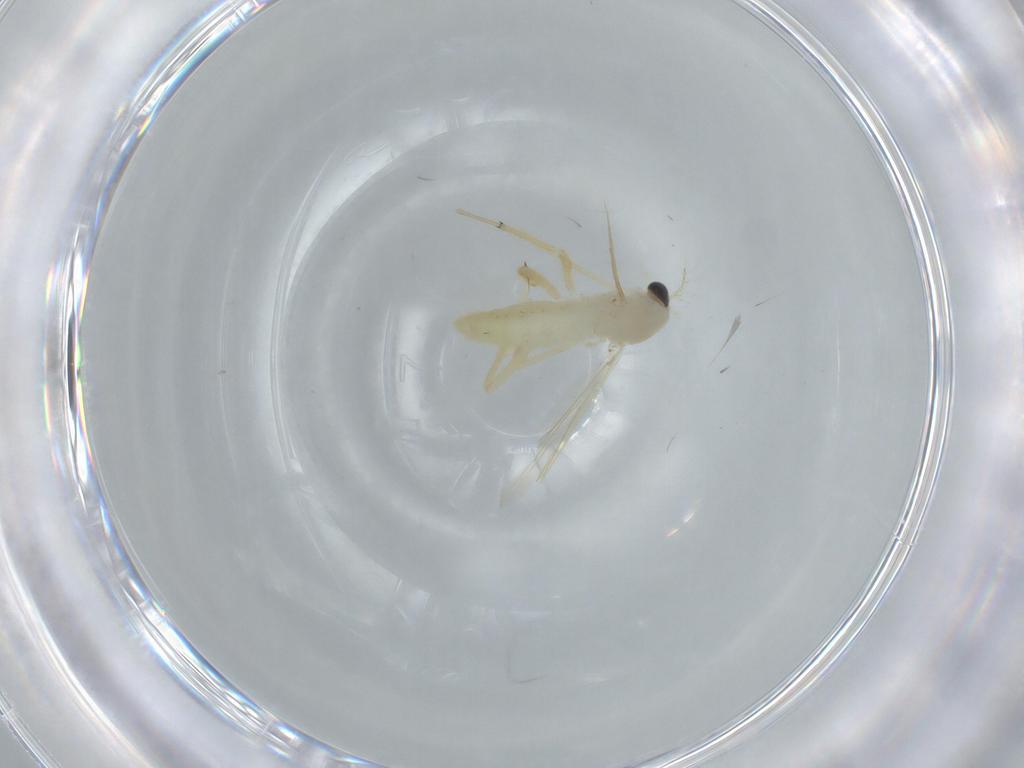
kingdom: Animalia
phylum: Arthropoda
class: Insecta
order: Diptera
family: Chironomidae
